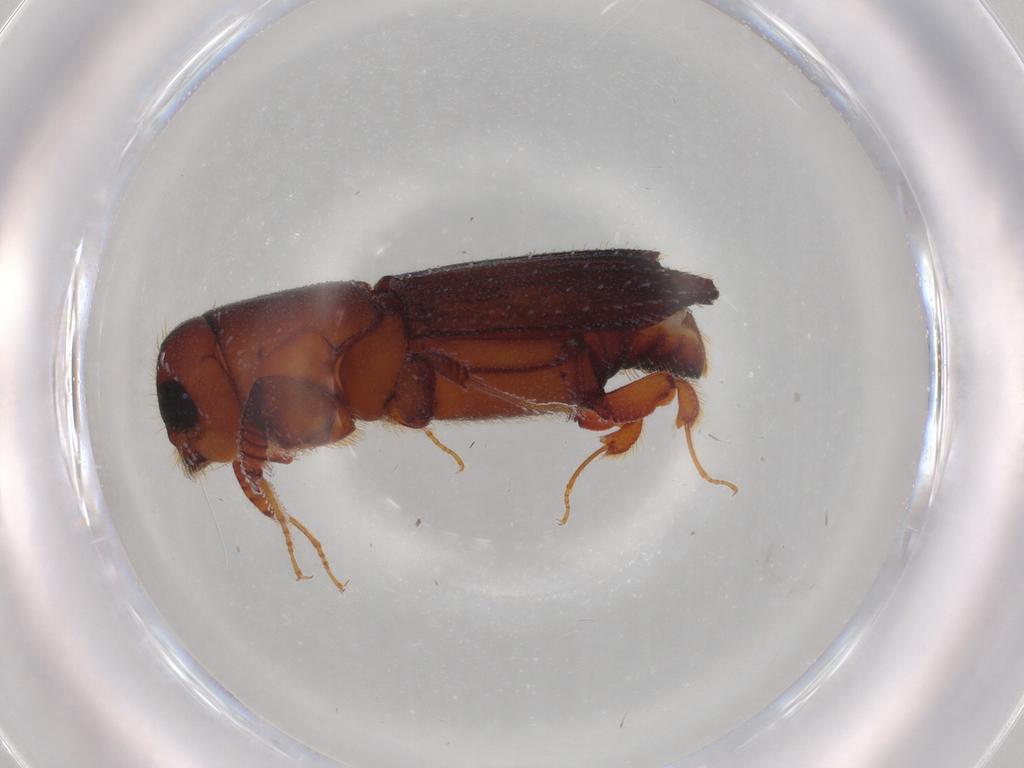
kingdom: Animalia
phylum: Arthropoda
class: Insecta
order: Coleoptera
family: Curculionidae
